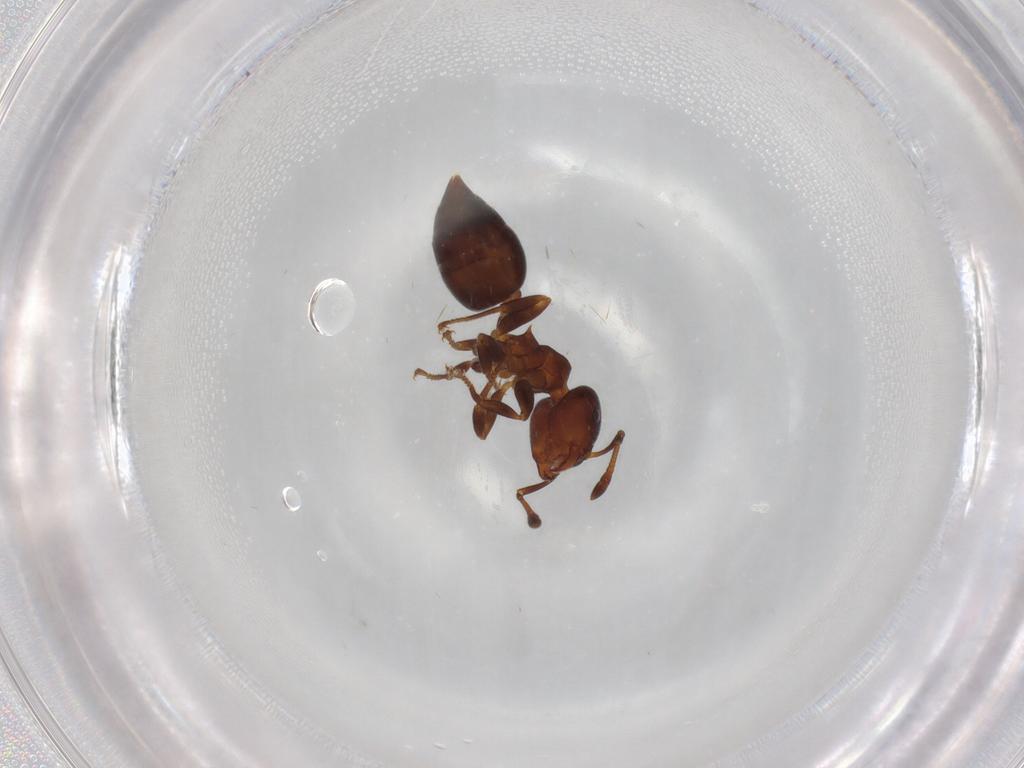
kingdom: Animalia
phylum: Arthropoda
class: Insecta
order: Hymenoptera
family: Formicidae
